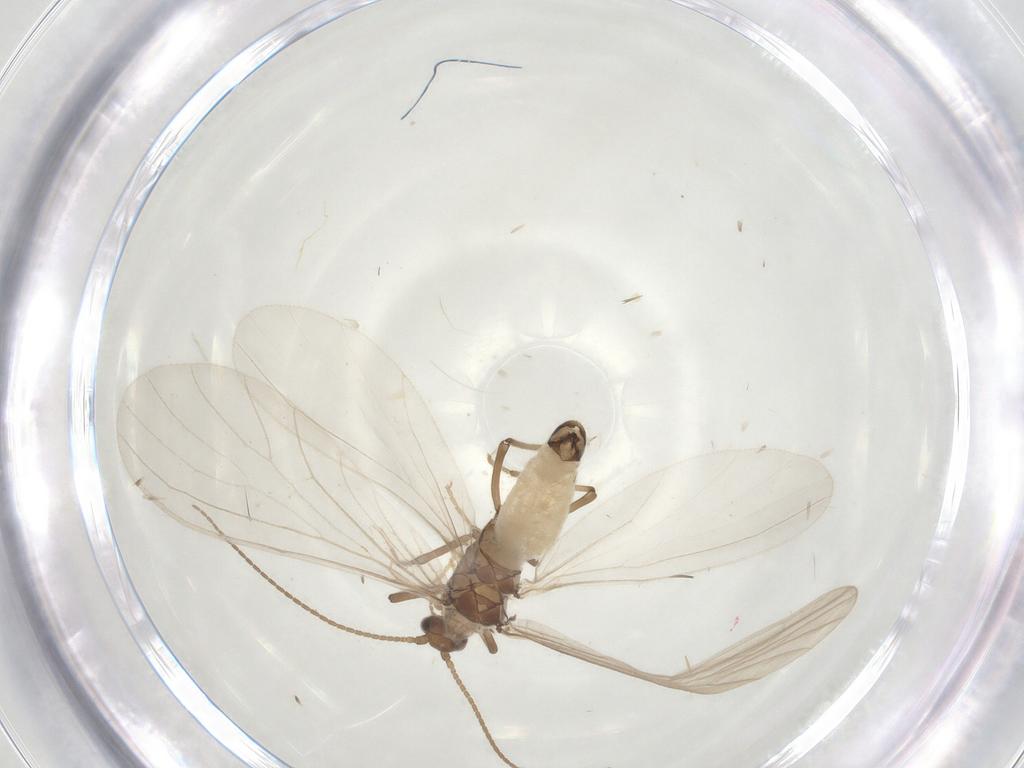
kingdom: Animalia
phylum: Arthropoda
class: Insecta
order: Neuroptera
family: Coniopterygidae
